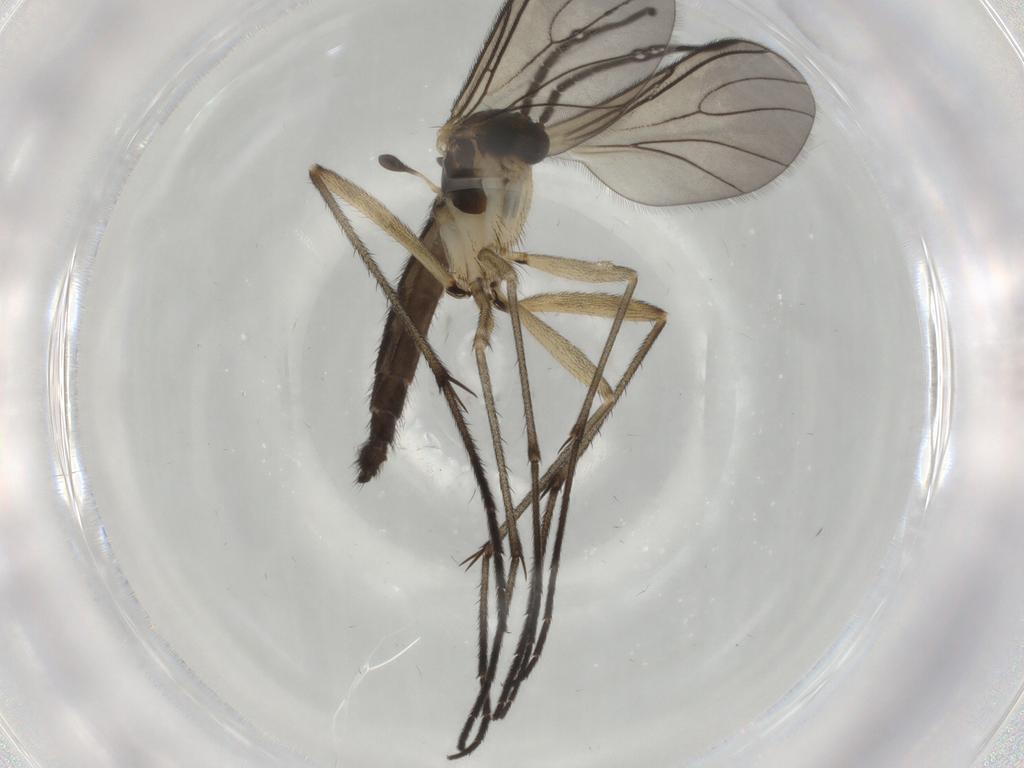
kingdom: Animalia
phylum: Arthropoda
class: Insecta
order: Diptera
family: Sciaridae
